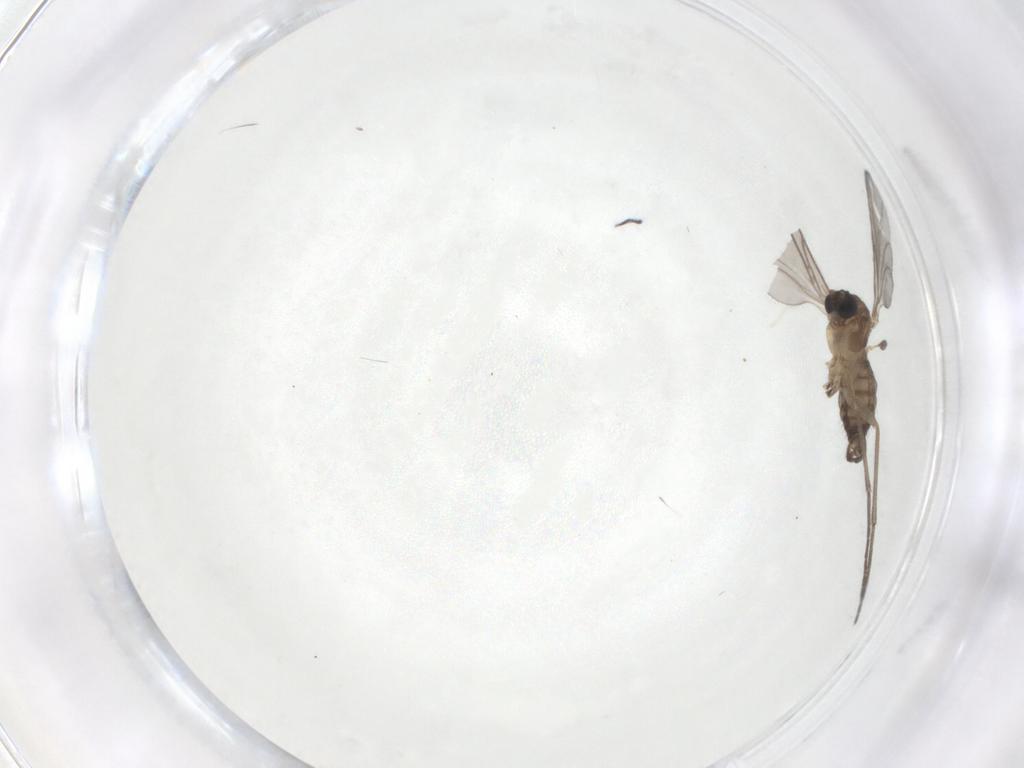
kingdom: Animalia
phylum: Arthropoda
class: Insecta
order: Diptera
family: Sciaridae
